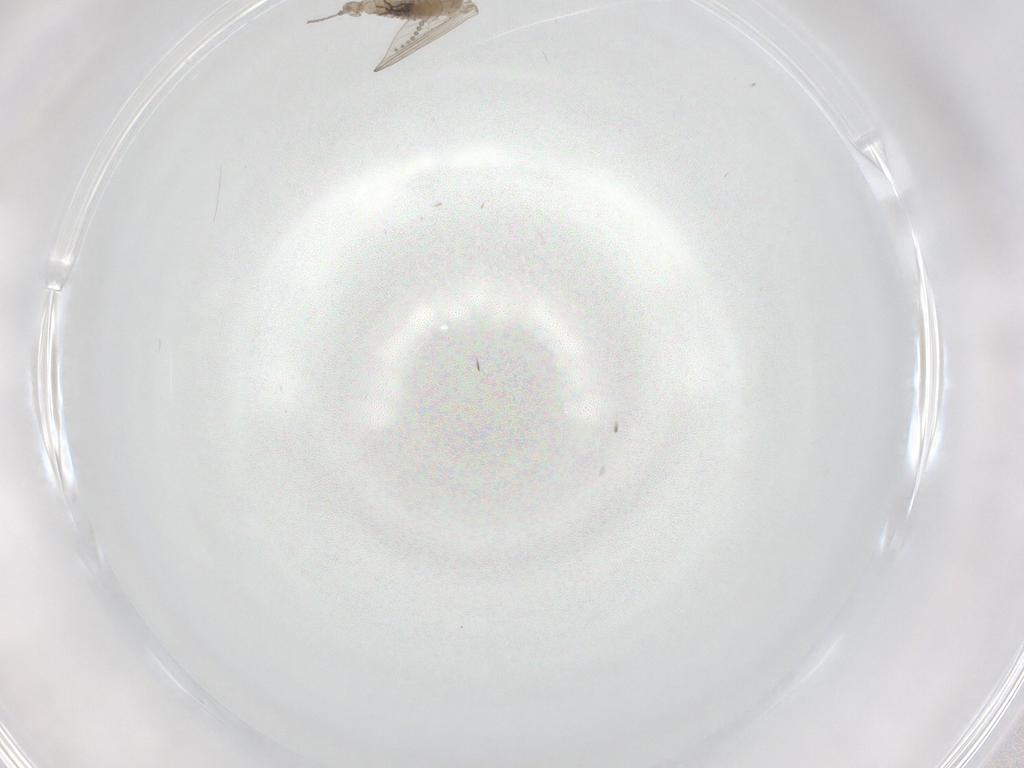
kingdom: Animalia
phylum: Arthropoda
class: Insecta
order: Diptera
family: Psychodidae
